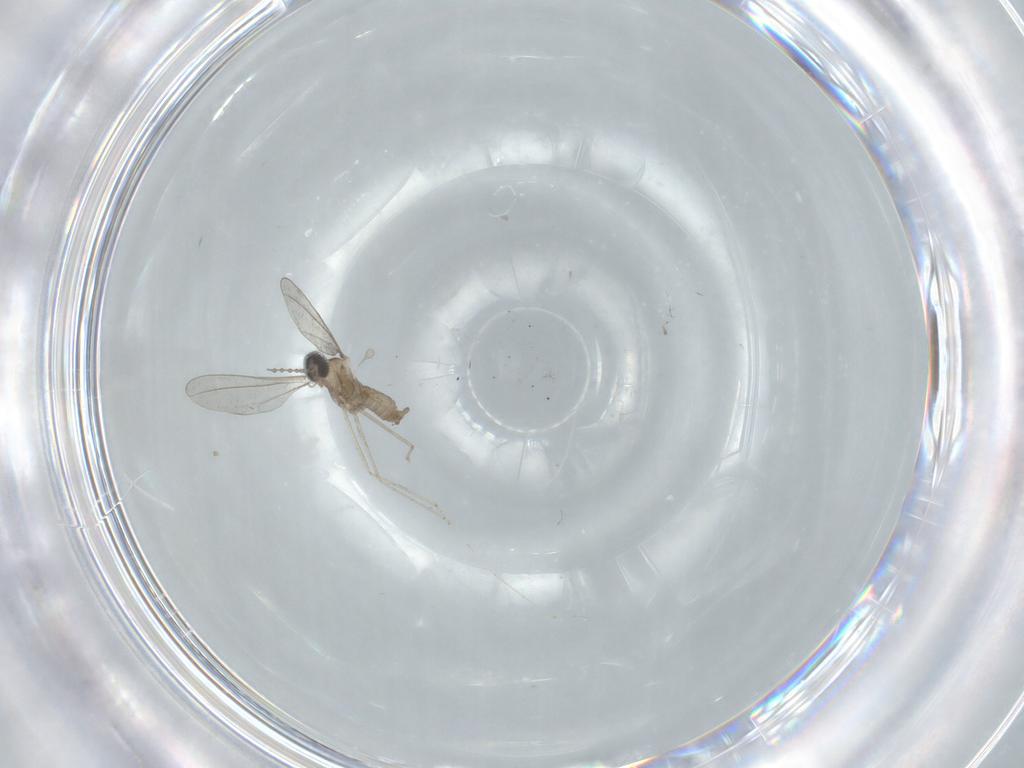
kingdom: Animalia
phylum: Arthropoda
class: Insecta
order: Diptera
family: Cecidomyiidae
